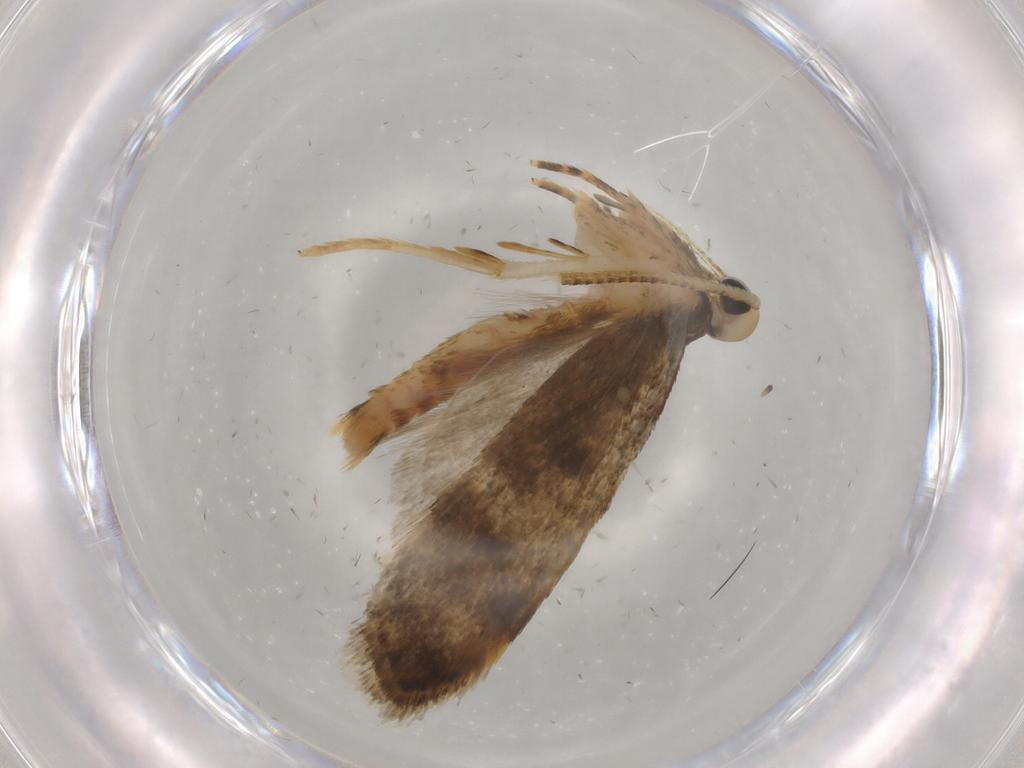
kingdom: Animalia
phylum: Arthropoda
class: Insecta
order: Lepidoptera
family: Autostichidae
